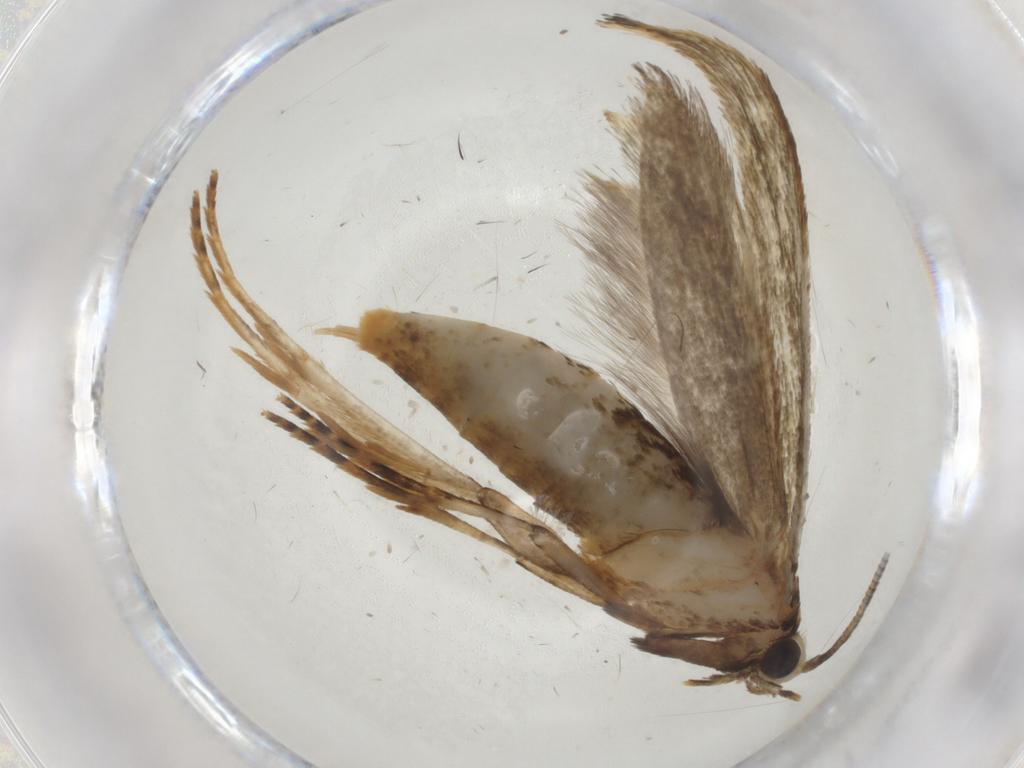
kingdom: Animalia
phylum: Arthropoda
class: Insecta
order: Lepidoptera
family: Tineidae
